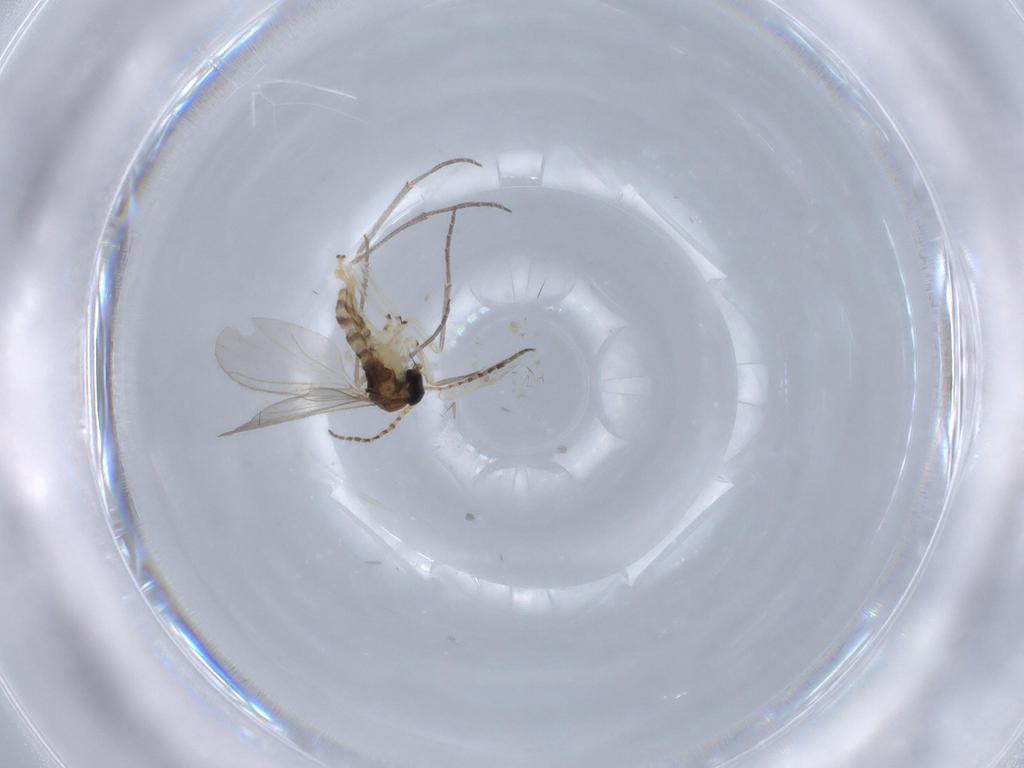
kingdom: Animalia
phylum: Arthropoda
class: Insecta
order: Diptera
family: Sciaridae
